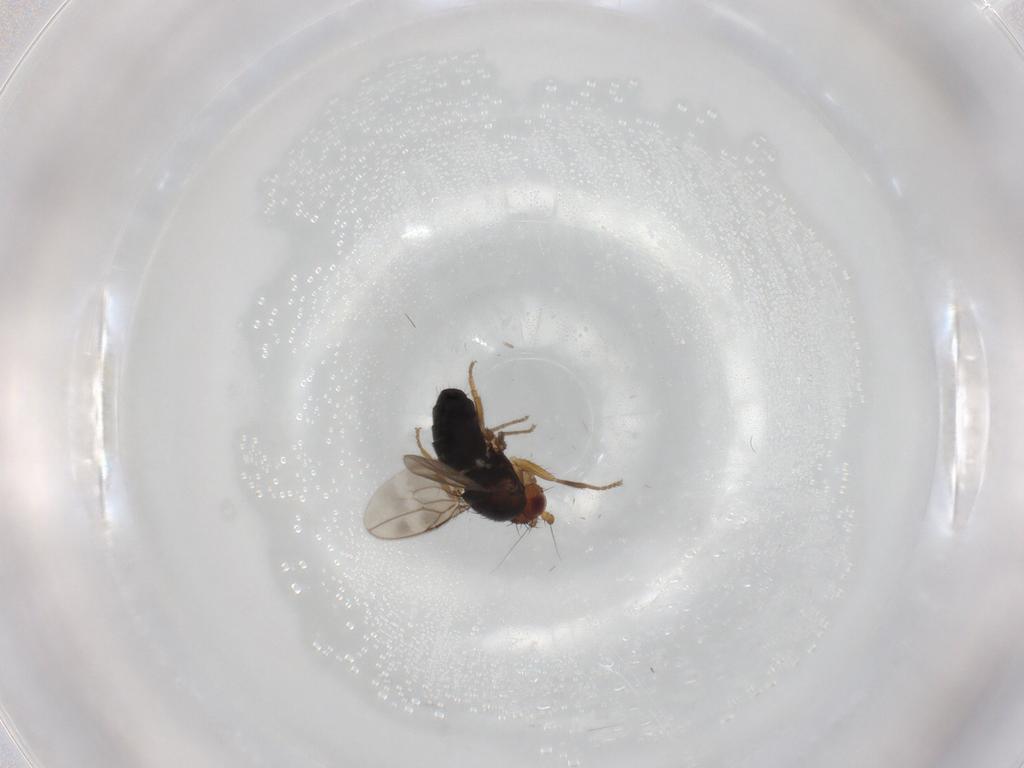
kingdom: Animalia
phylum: Arthropoda
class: Insecta
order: Diptera
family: Sphaeroceridae
